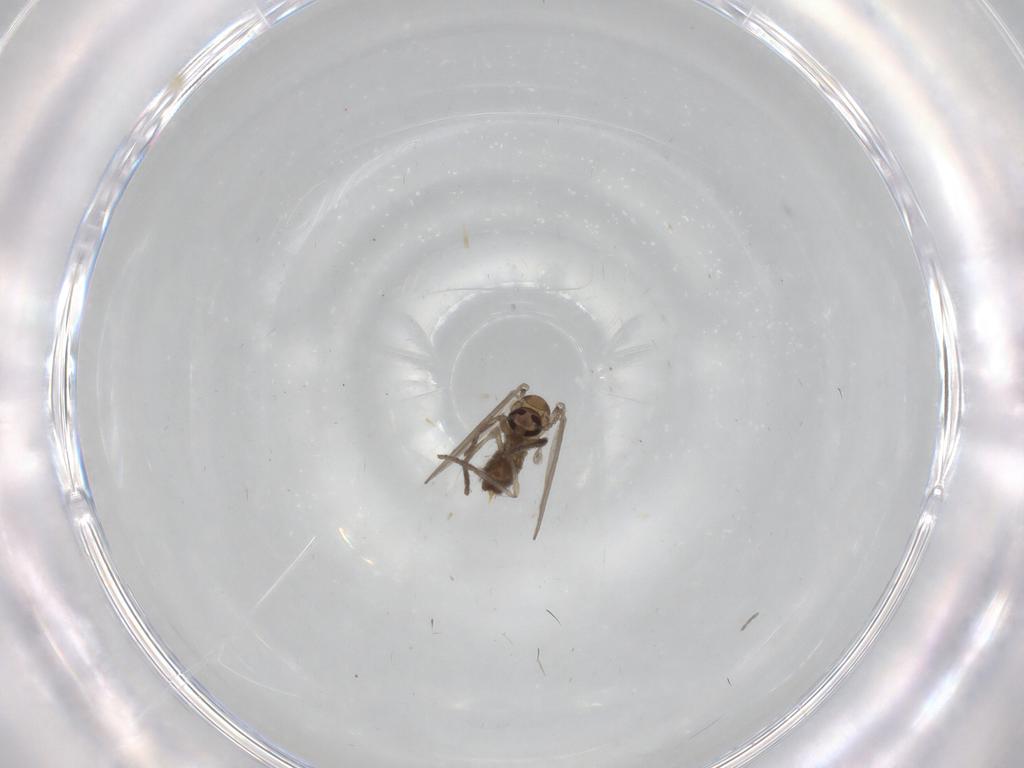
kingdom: Animalia
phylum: Arthropoda
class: Insecta
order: Diptera
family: Psychodidae
